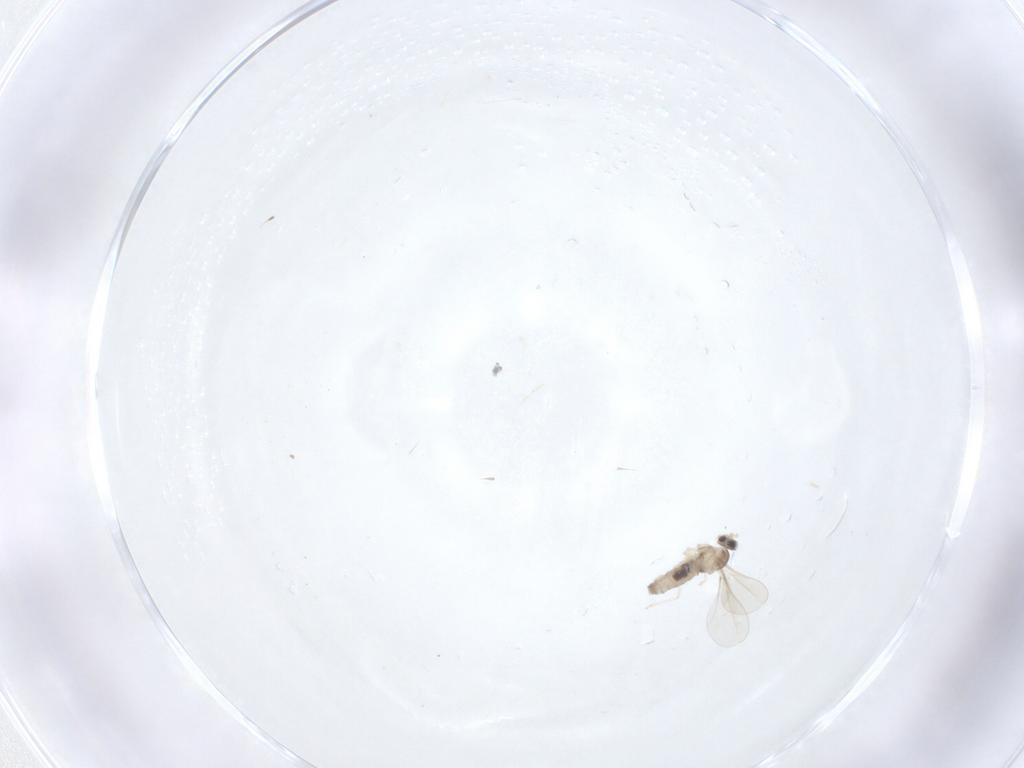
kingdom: Animalia
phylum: Arthropoda
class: Insecta
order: Diptera
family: Cecidomyiidae
